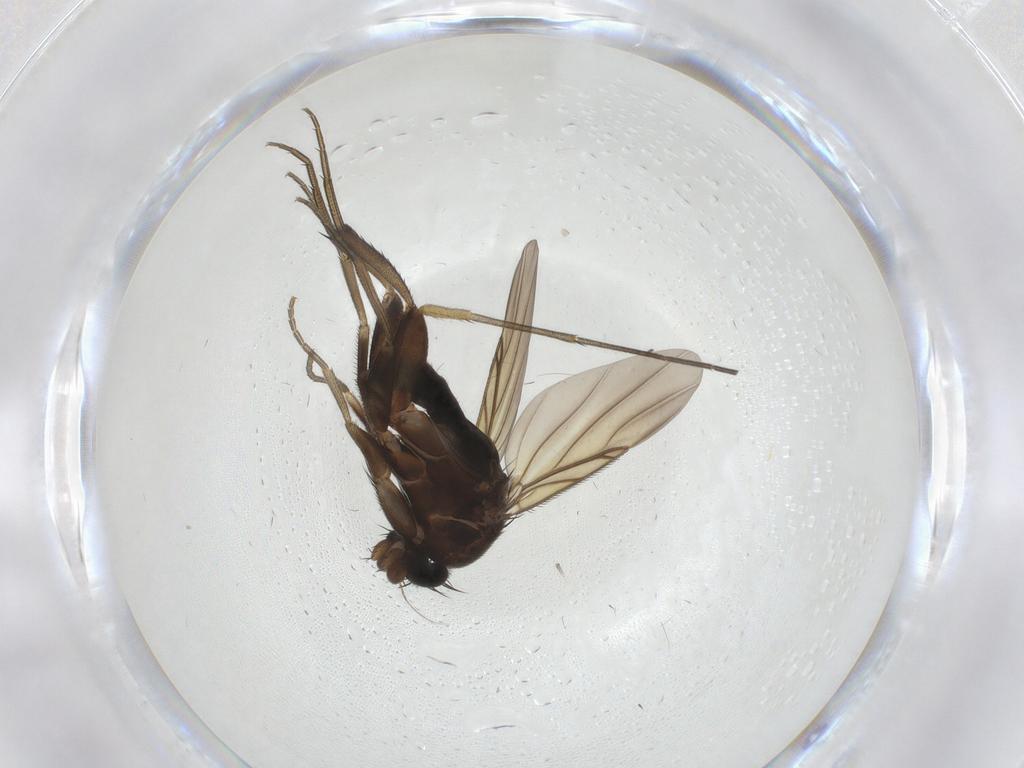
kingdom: Animalia
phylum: Arthropoda
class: Insecta
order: Diptera
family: Phoridae
